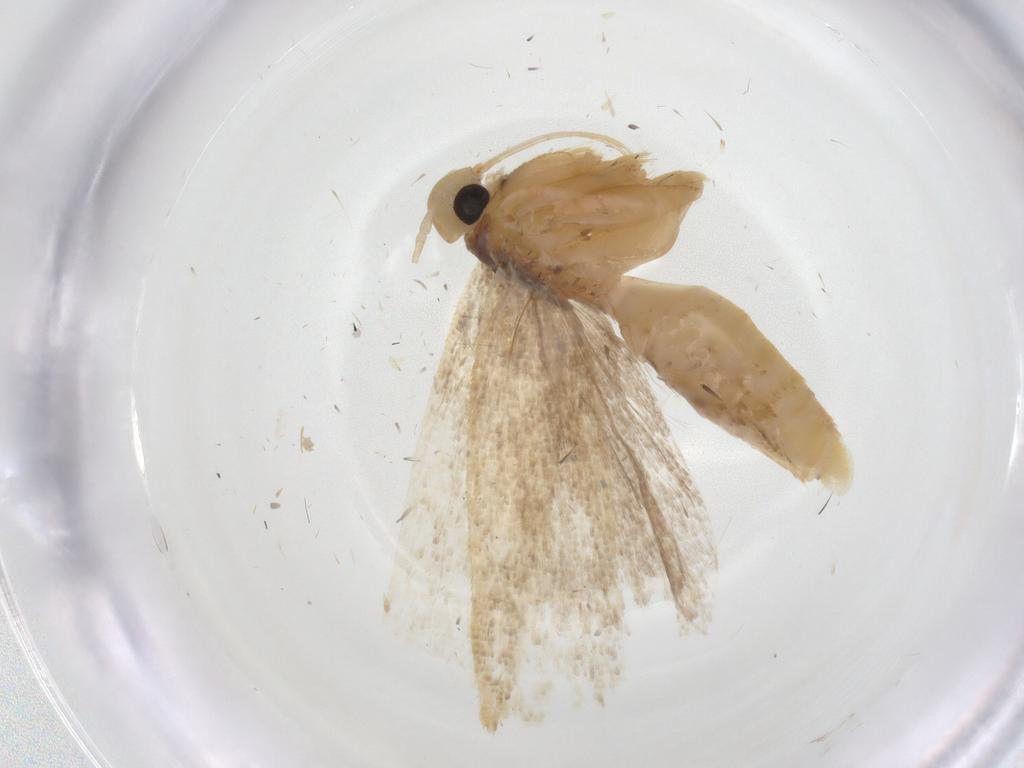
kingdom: Animalia
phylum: Arthropoda
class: Insecta
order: Lepidoptera
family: Gelechiidae
